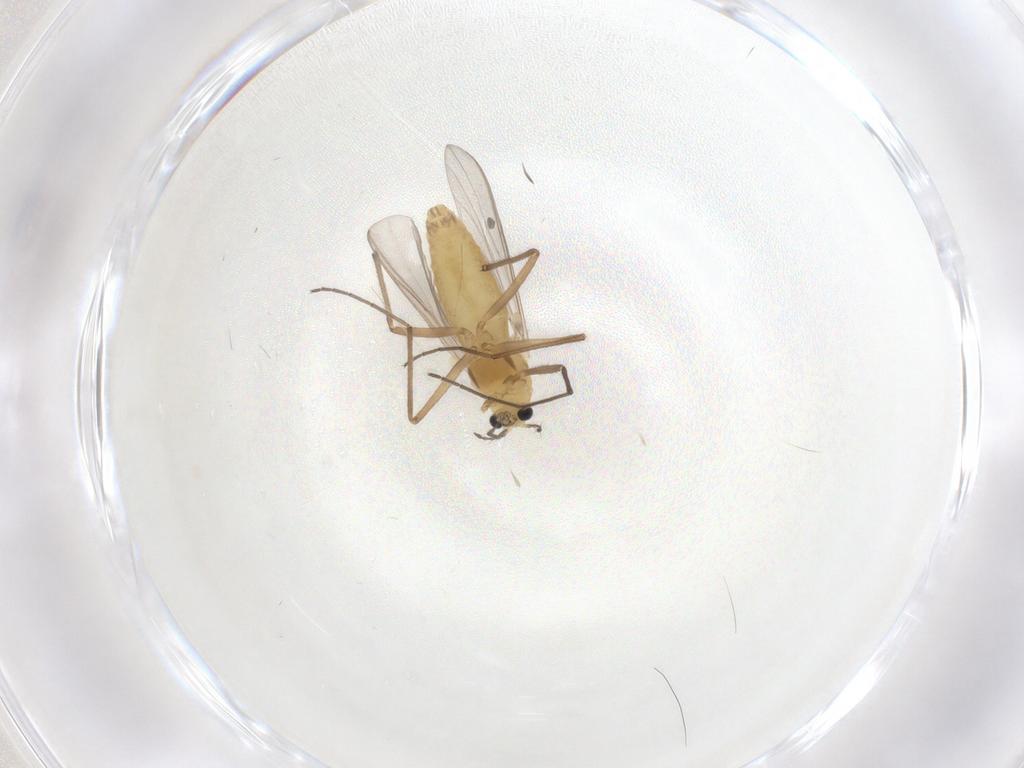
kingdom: Animalia
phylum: Arthropoda
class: Insecta
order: Diptera
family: Chironomidae
